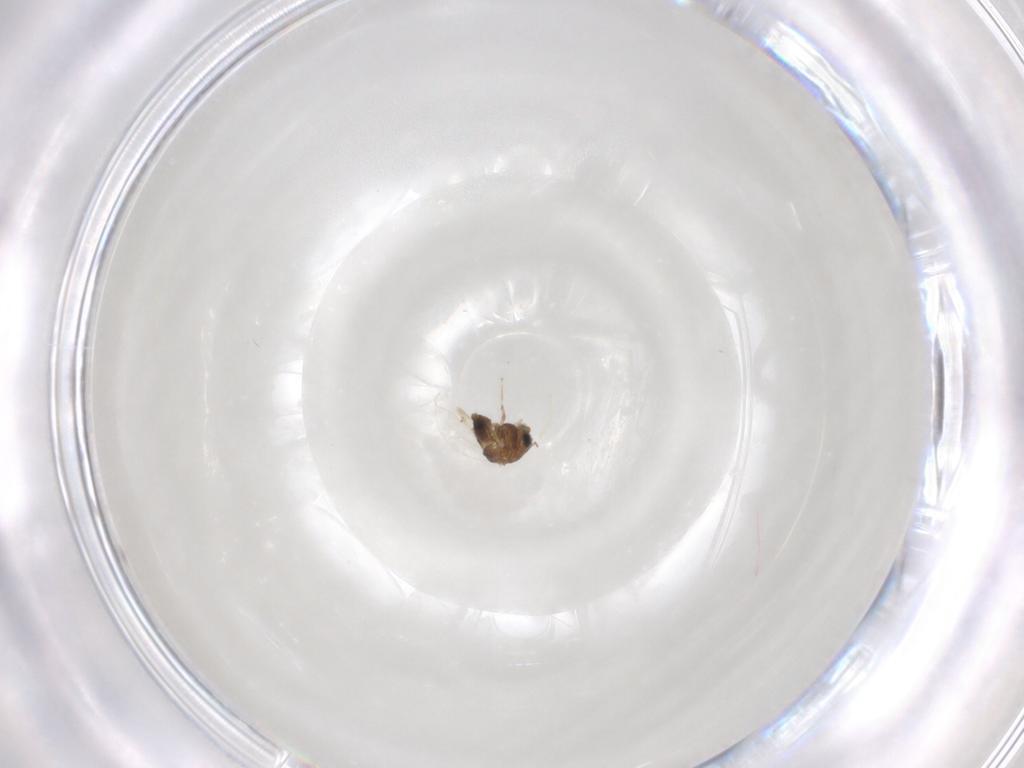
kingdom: Animalia
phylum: Arthropoda
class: Insecta
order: Diptera
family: Chironomidae
